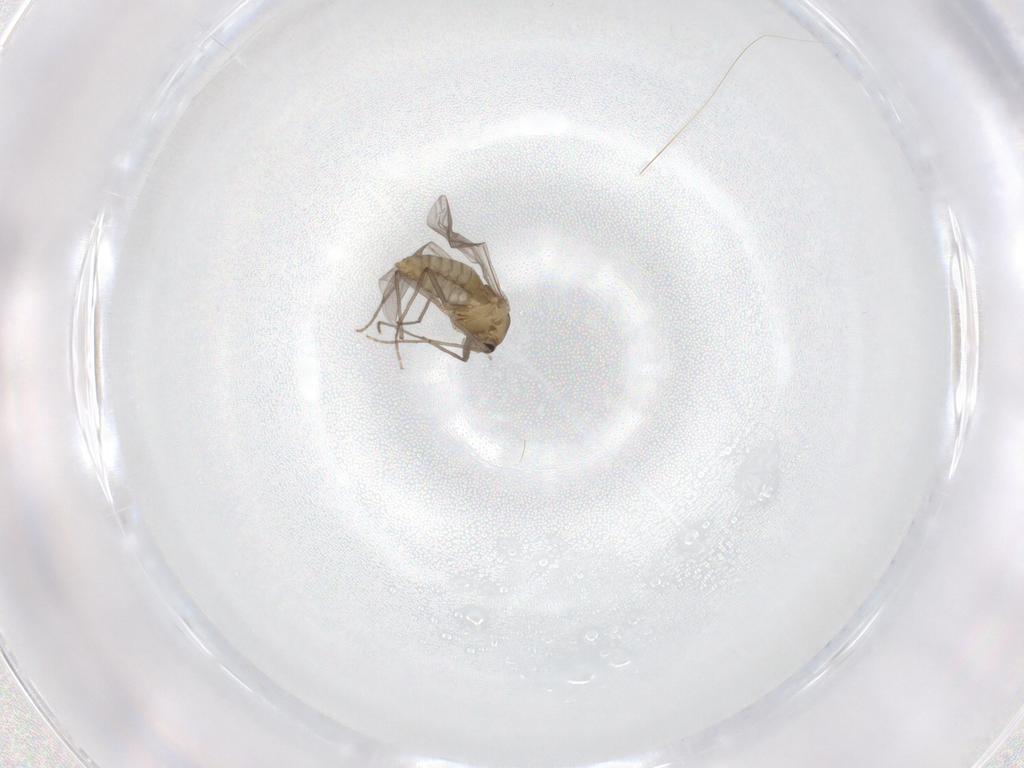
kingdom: Animalia
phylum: Arthropoda
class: Insecta
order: Diptera
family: Chironomidae
